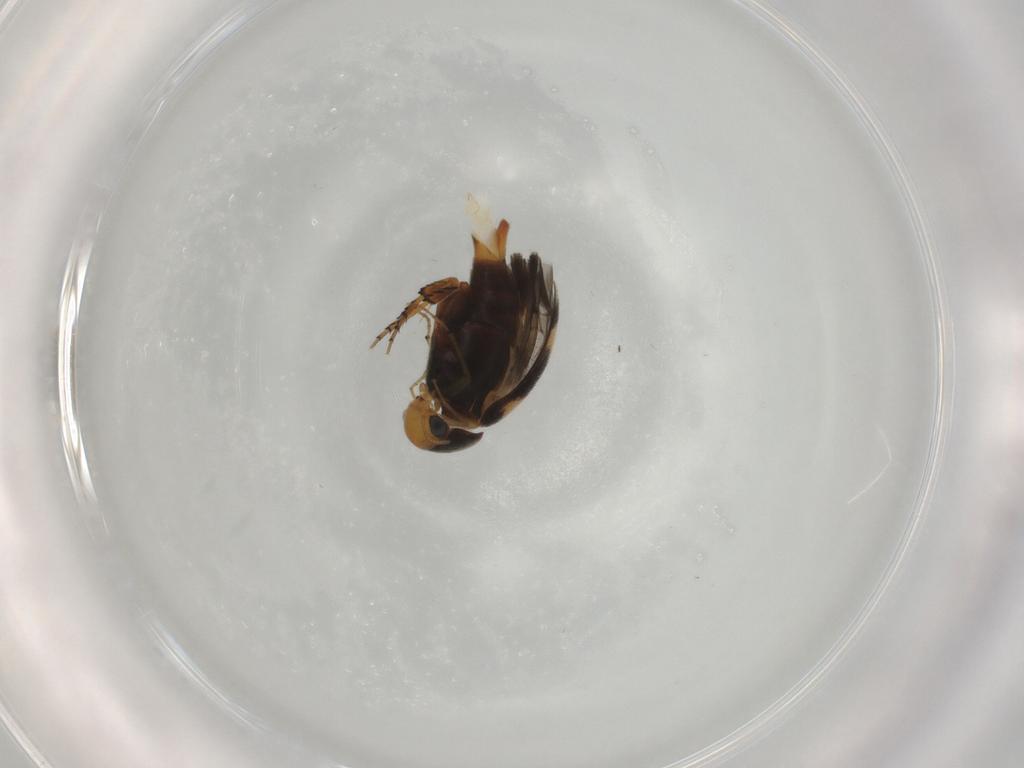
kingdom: Animalia
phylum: Arthropoda
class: Insecta
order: Coleoptera
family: Mordellidae
